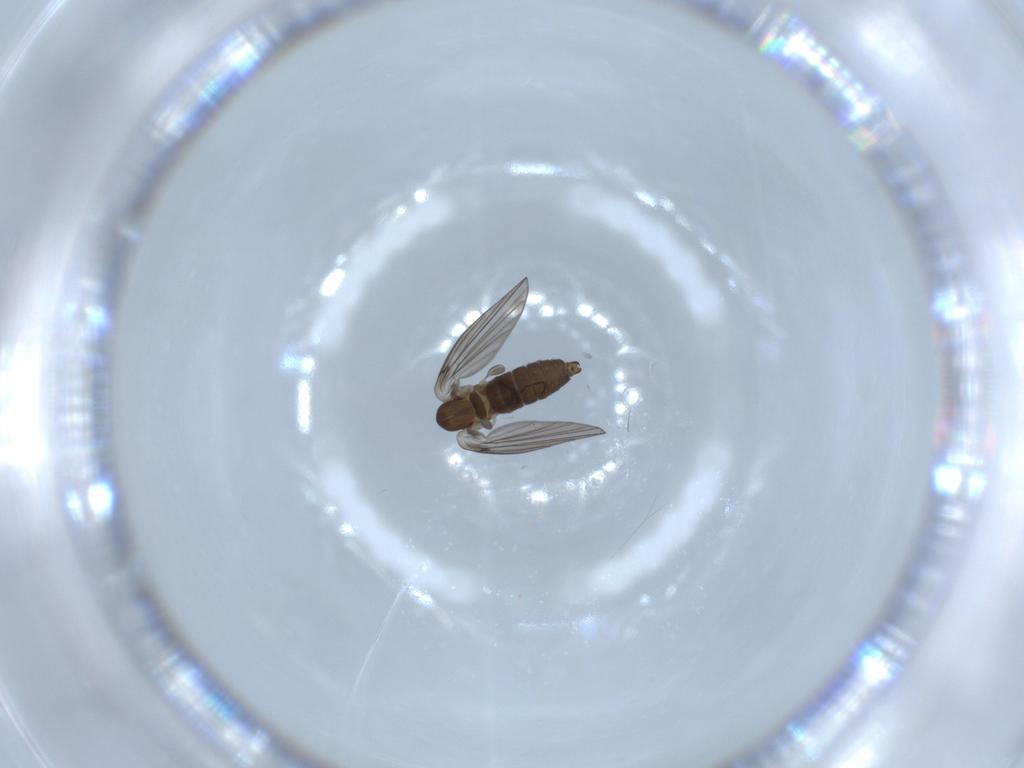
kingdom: Animalia
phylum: Arthropoda
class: Insecta
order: Diptera
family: Psychodidae
